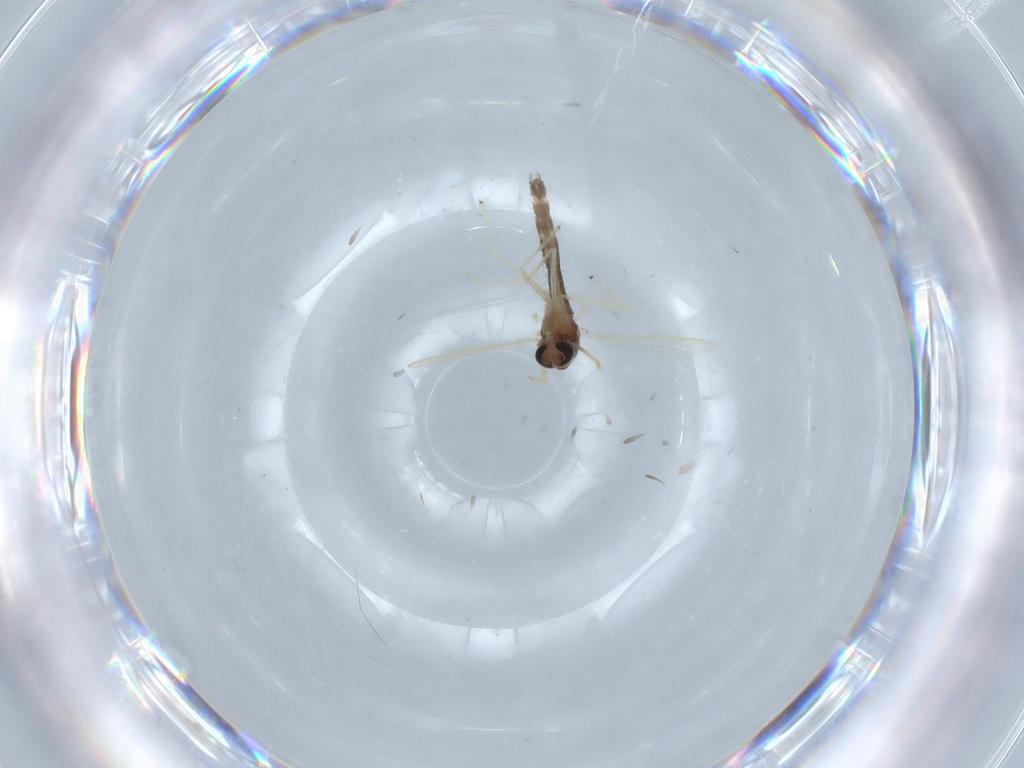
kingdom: Animalia
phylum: Arthropoda
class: Insecta
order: Diptera
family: Chironomidae
